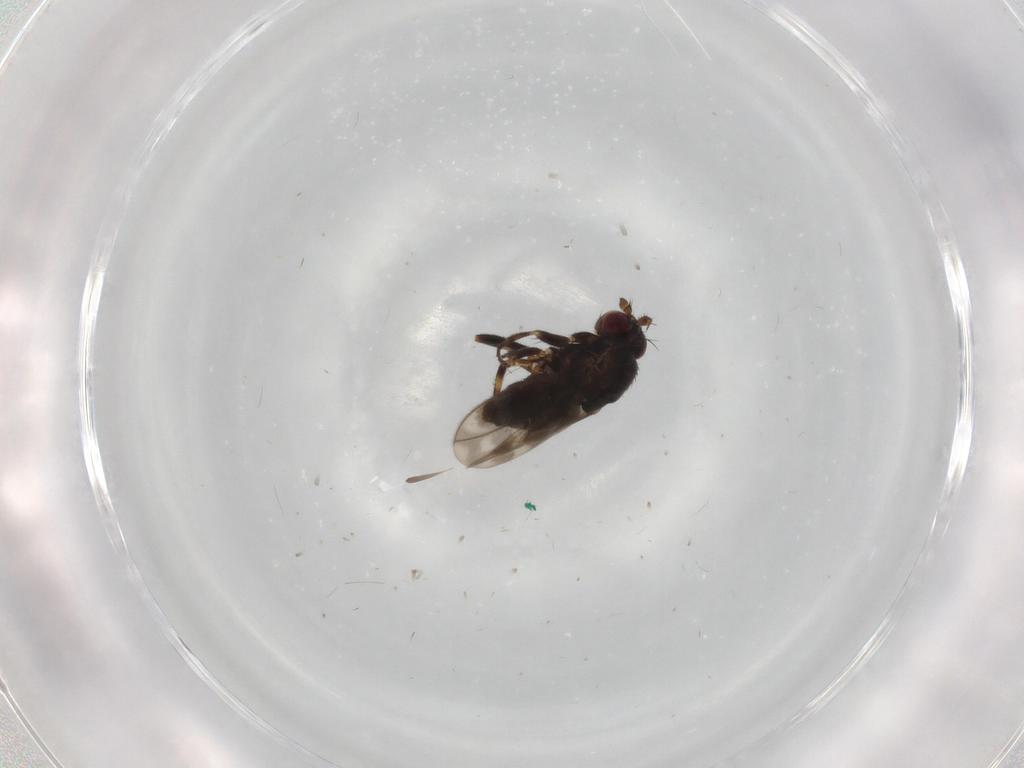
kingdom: Animalia
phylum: Arthropoda
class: Insecta
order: Diptera
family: Sphaeroceridae
